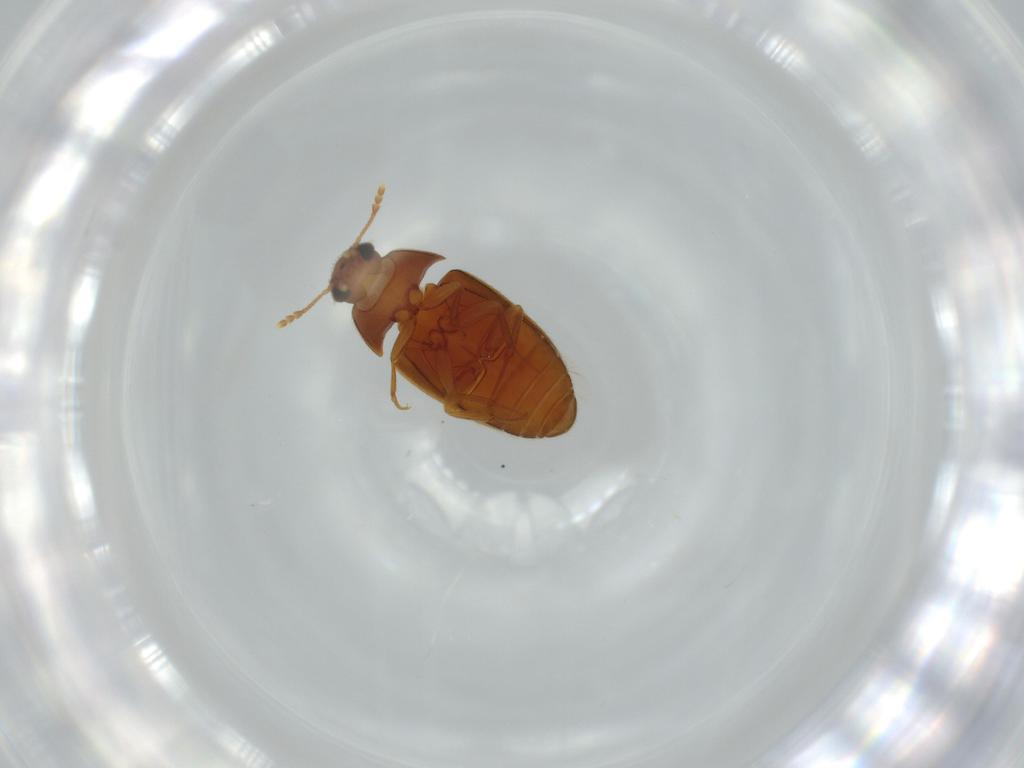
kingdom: Animalia
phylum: Arthropoda
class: Insecta
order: Coleoptera
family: Mycetophagidae
